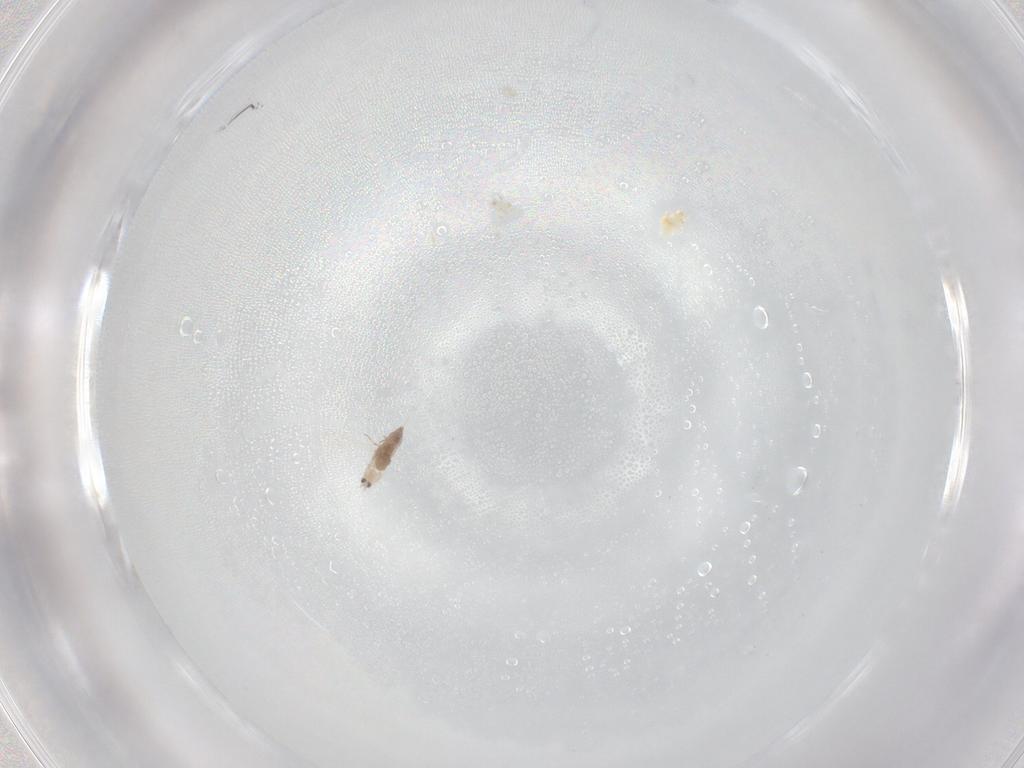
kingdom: Animalia
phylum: Arthropoda
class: Insecta
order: Hemiptera
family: Coccoidea_incertae_sedis
